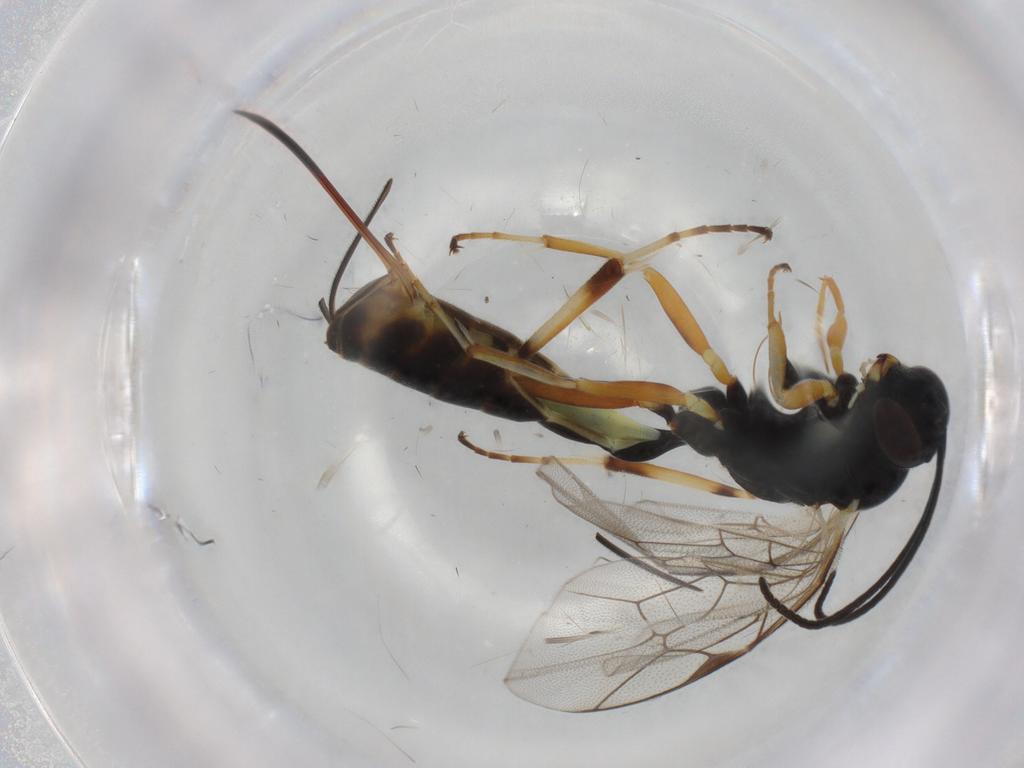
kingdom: Animalia
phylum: Arthropoda
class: Insecta
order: Hymenoptera
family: Ichneumonidae
